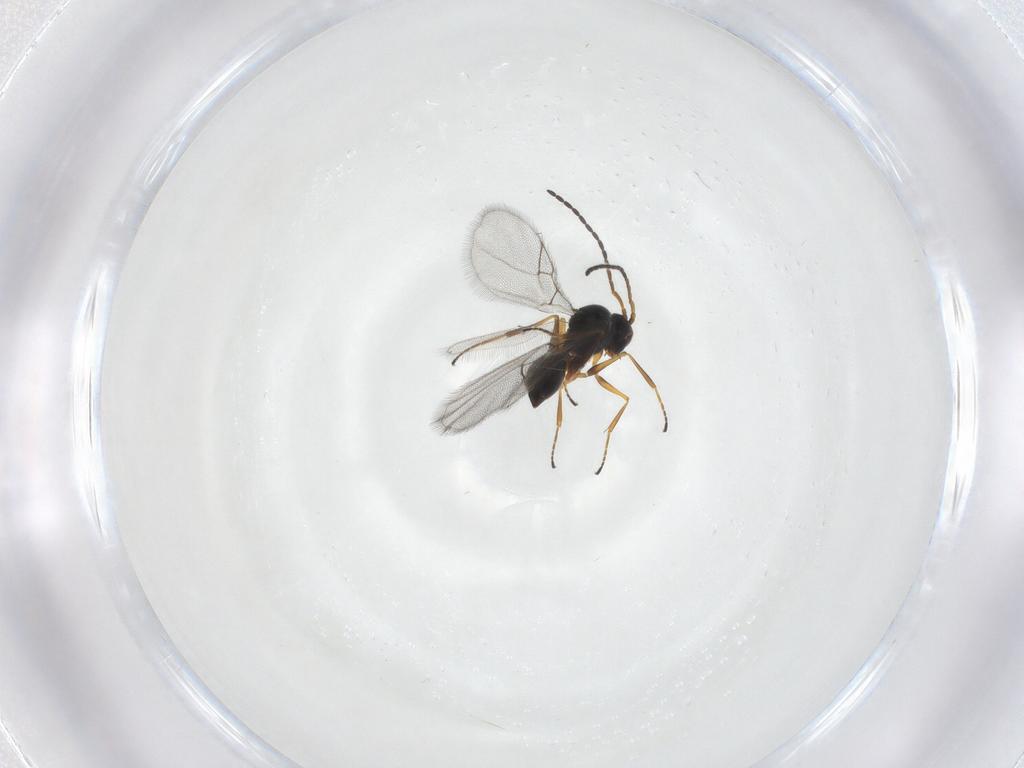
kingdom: Animalia
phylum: Arthropoda
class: Insecta
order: Hymenoptera
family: Figitidae
